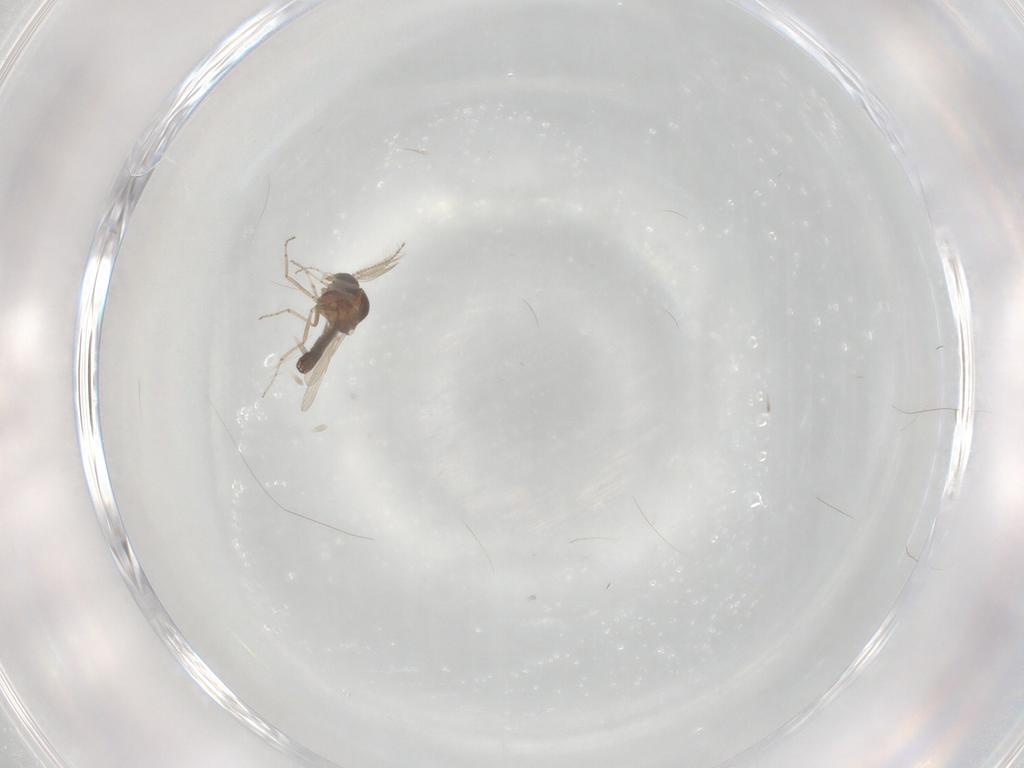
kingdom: Animalia
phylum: Arthropoda
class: Insecta
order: Diptera
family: Ceratopogonidae
